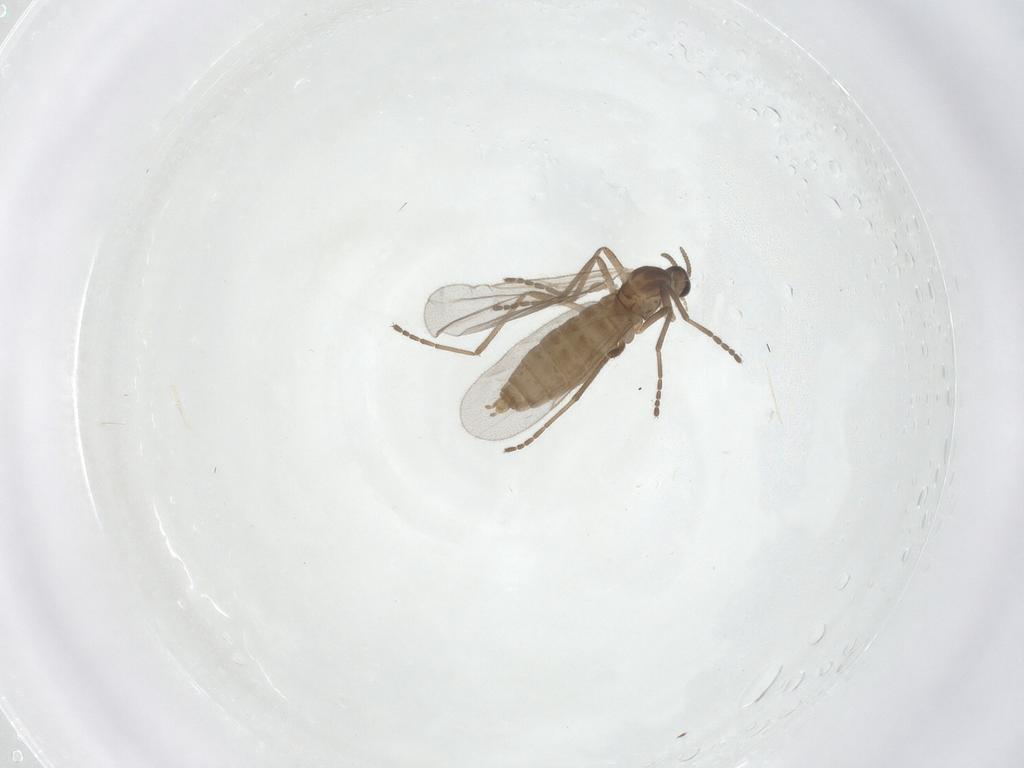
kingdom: Animalia
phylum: Arthropoda
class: Insecta
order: Diptera
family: Cecidomyiidae
